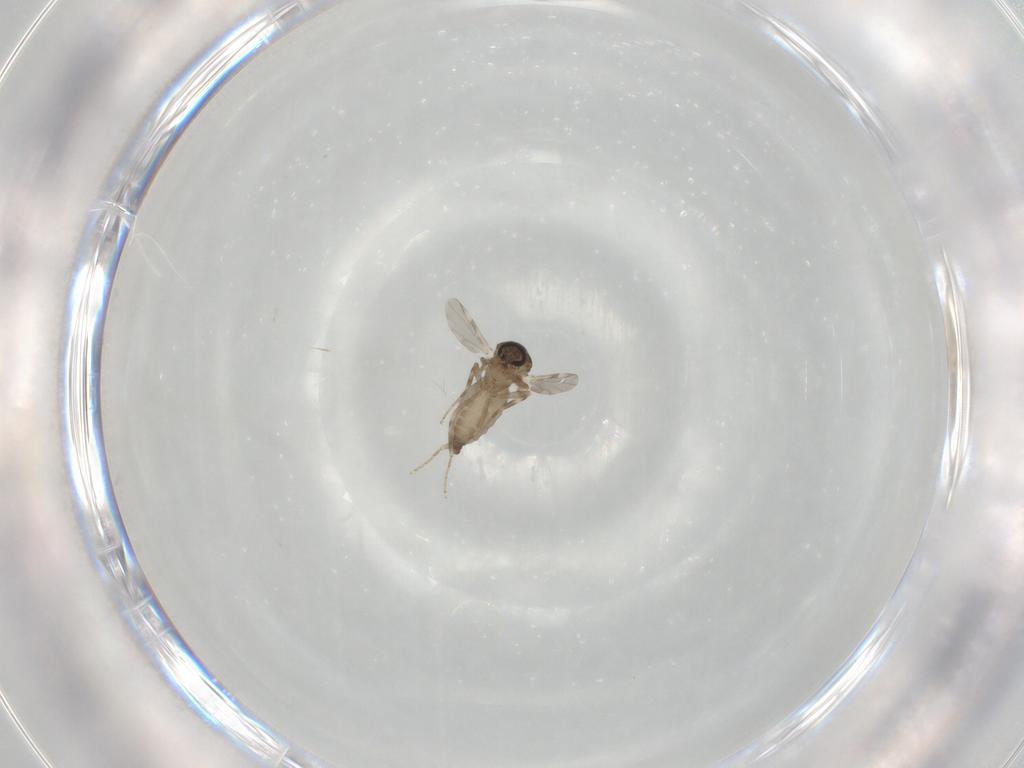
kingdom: Animalia
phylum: Arthropoda
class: Insecta
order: Diptera
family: Ceratopogonidae
